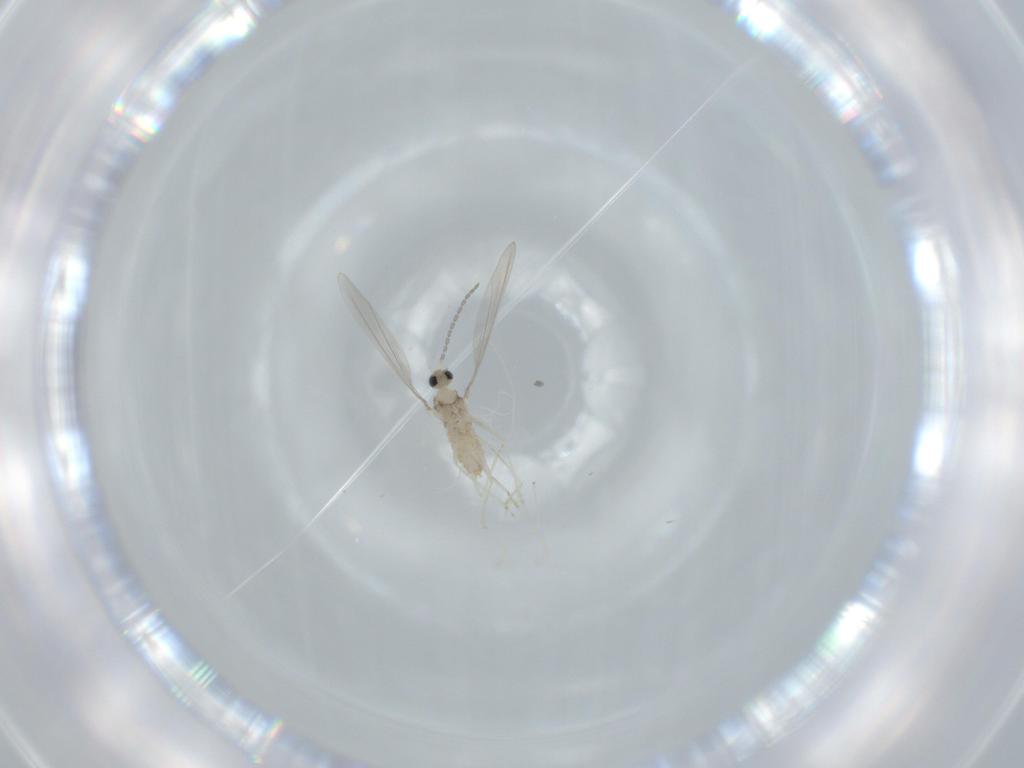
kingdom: Animalia
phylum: Arthropoda
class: Insecta
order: Diptera
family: Cecidomyiidae
